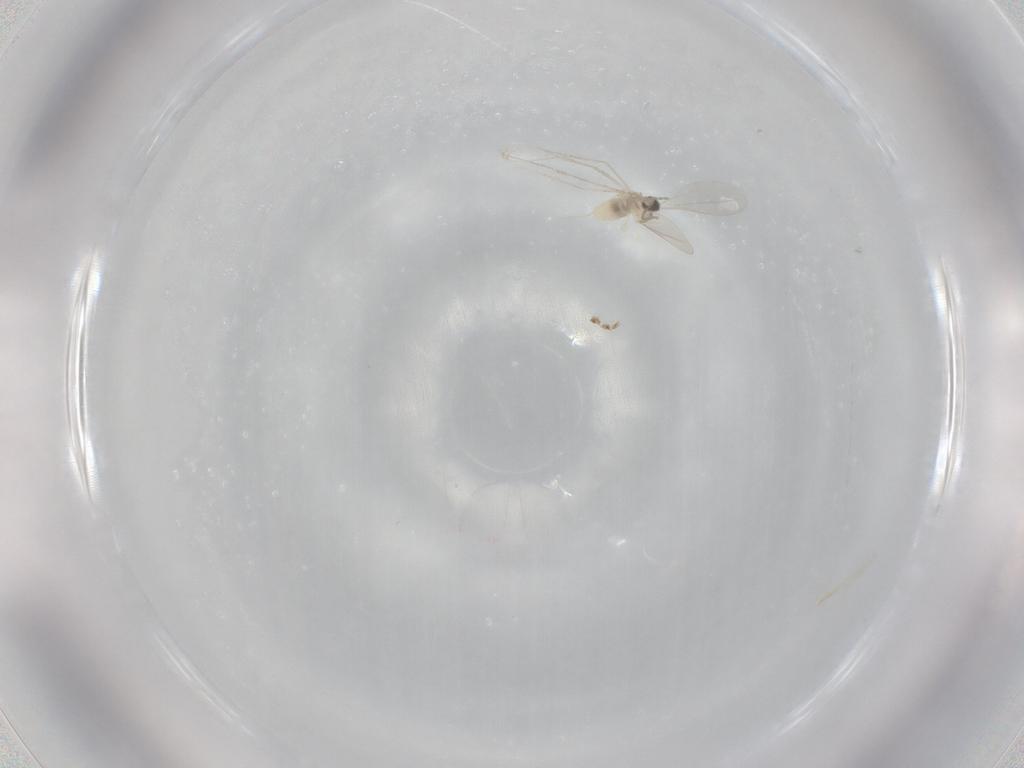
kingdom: Animalia
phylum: Arthropoda
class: Insecta
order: Diptera
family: Cecidomyiidae
